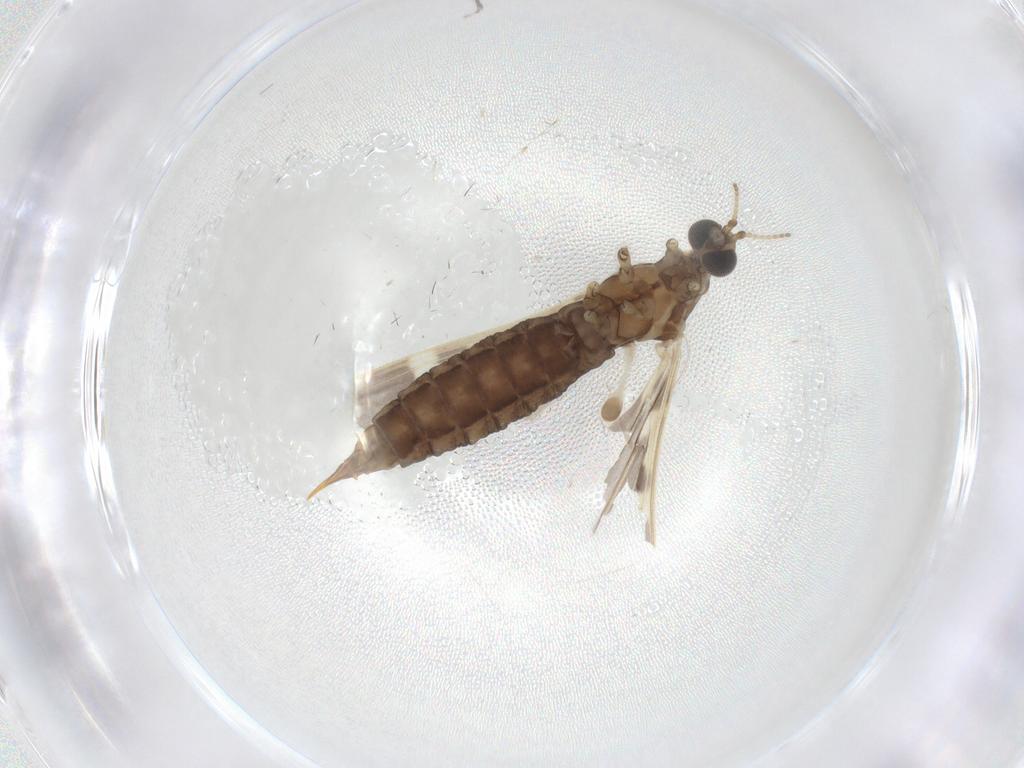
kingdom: Animalia
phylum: Arthropoda
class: Insecta
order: Diptera
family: Limoniidae
